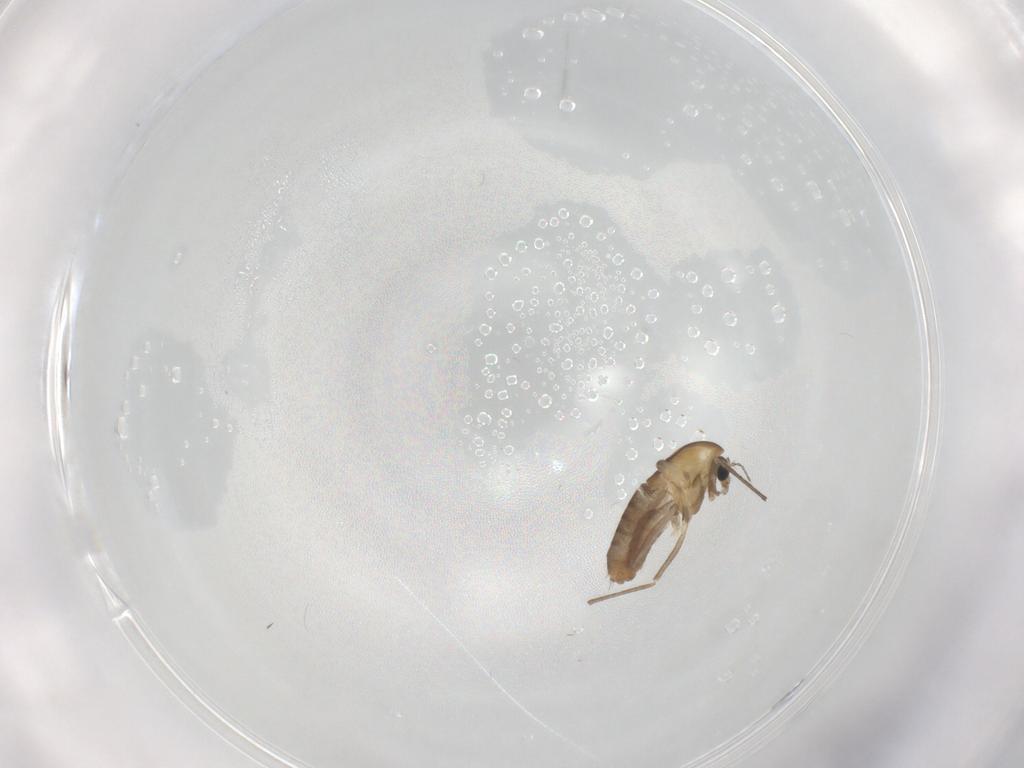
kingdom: Animalia
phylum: Arthropoda
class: Insecta
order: Diptera
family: Chironomidae
